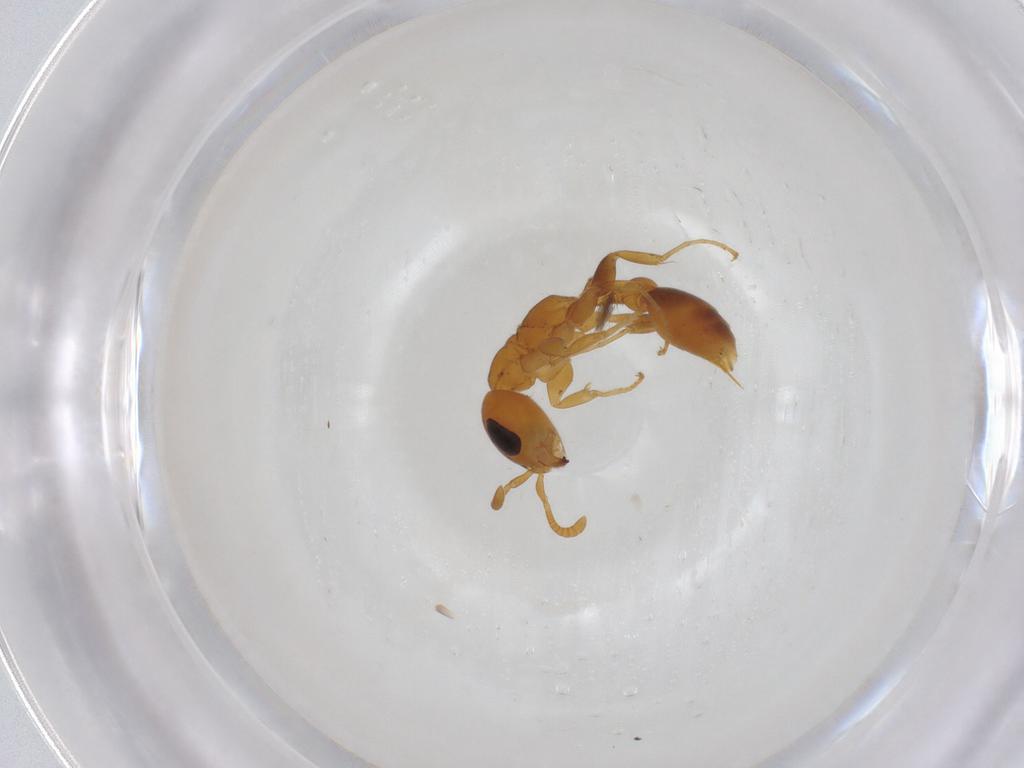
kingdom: Animalia
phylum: Arthropoda
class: Insecta
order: Hymenoptera
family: Formicidae
